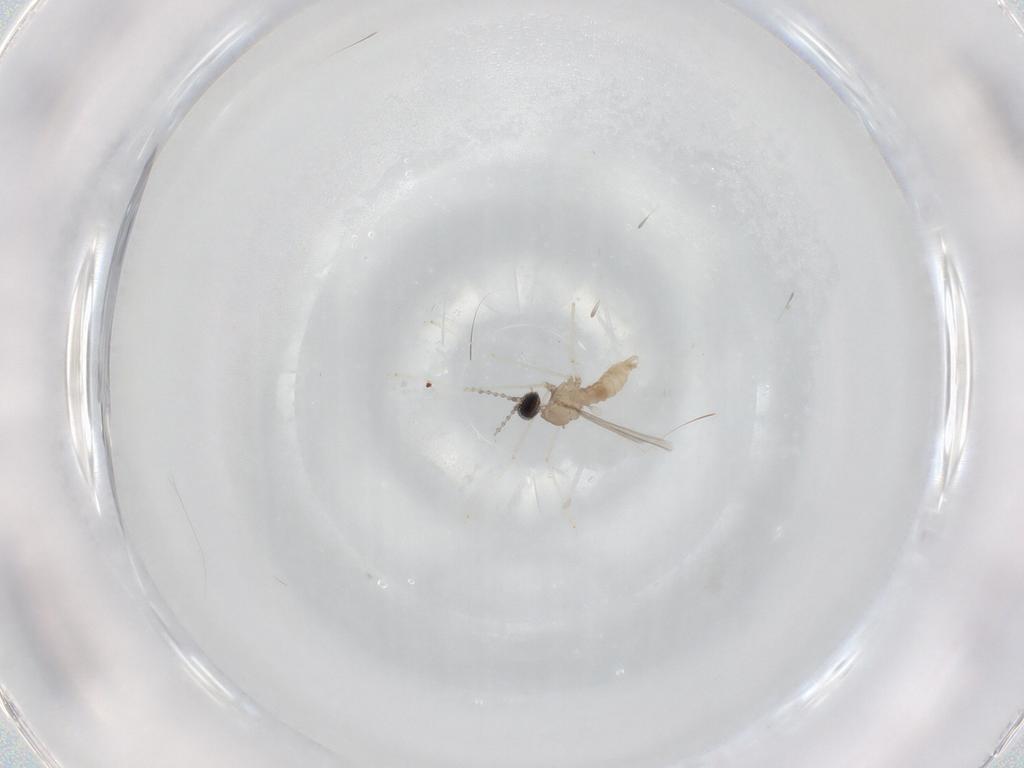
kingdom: Animalia
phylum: Arthropoda
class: Insecta
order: Diptera
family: Cecidomyiidae
